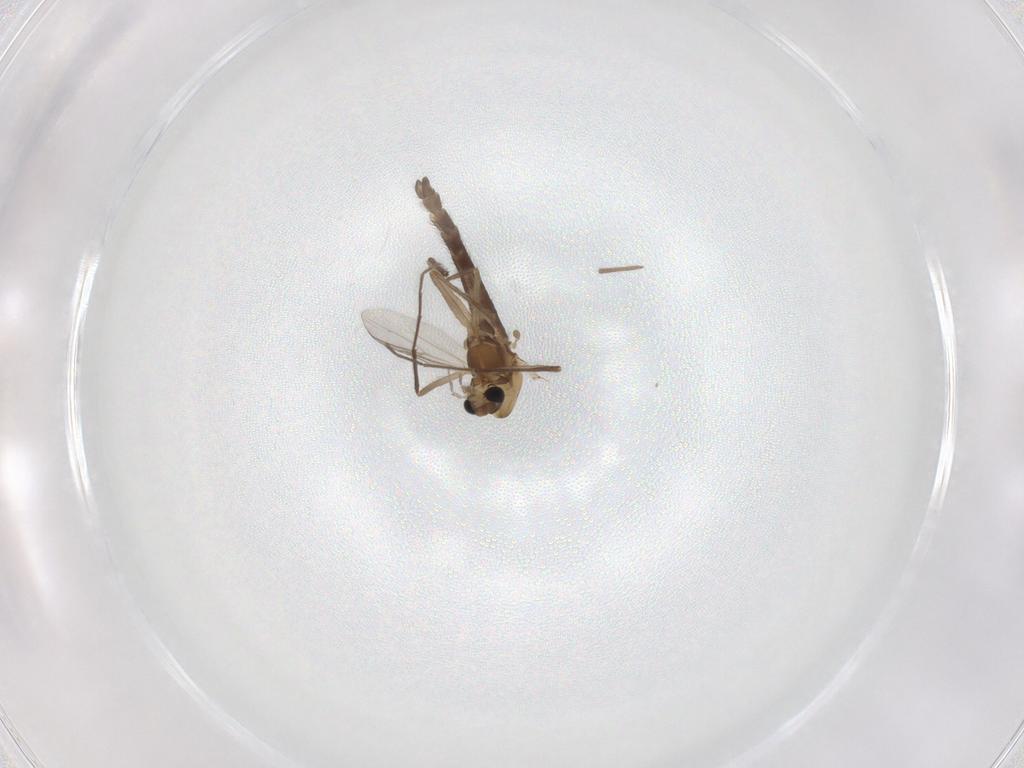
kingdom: Animalia
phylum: Arthropoda
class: Insecta
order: Diptera
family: Chironomidae
